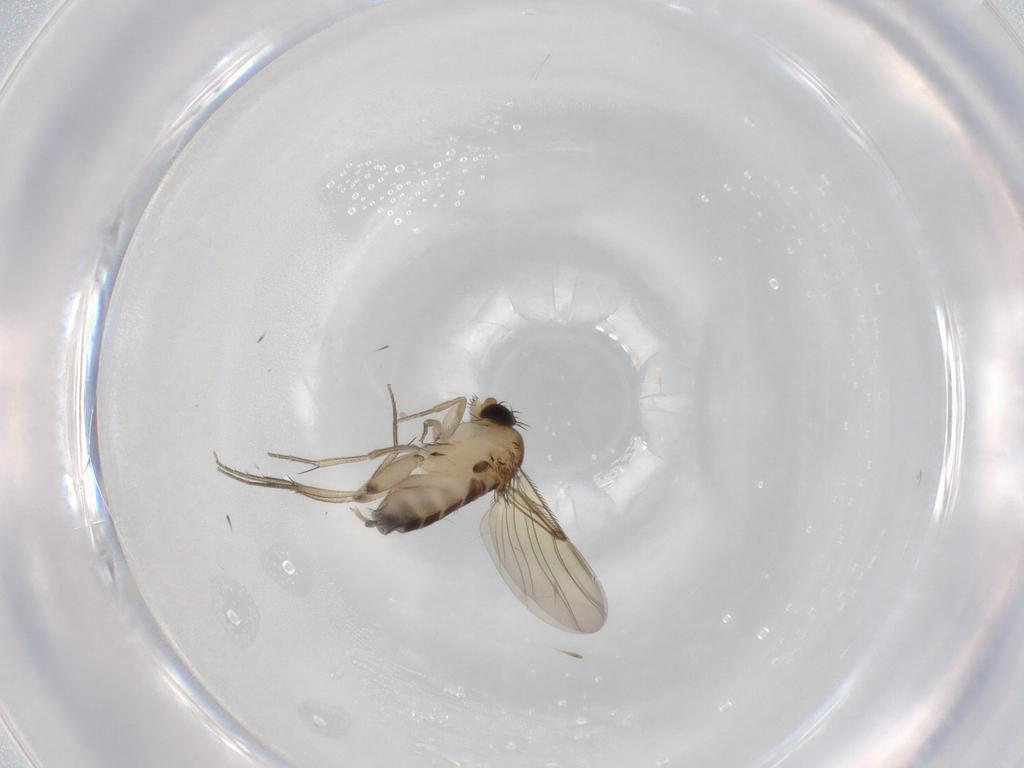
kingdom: Animalia
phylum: Arthropoda
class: Insecta
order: Diptera
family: Phoridae
